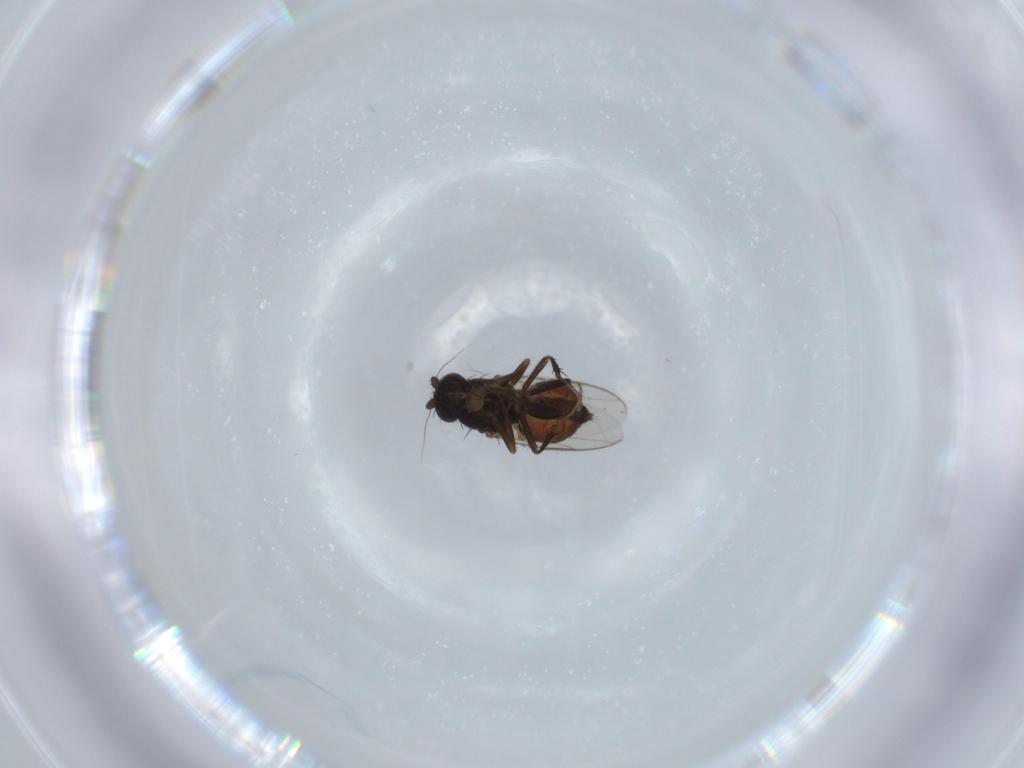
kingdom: Animalia
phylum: Arthropoda
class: Insecta
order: Diptera
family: Sphaeroceridae
